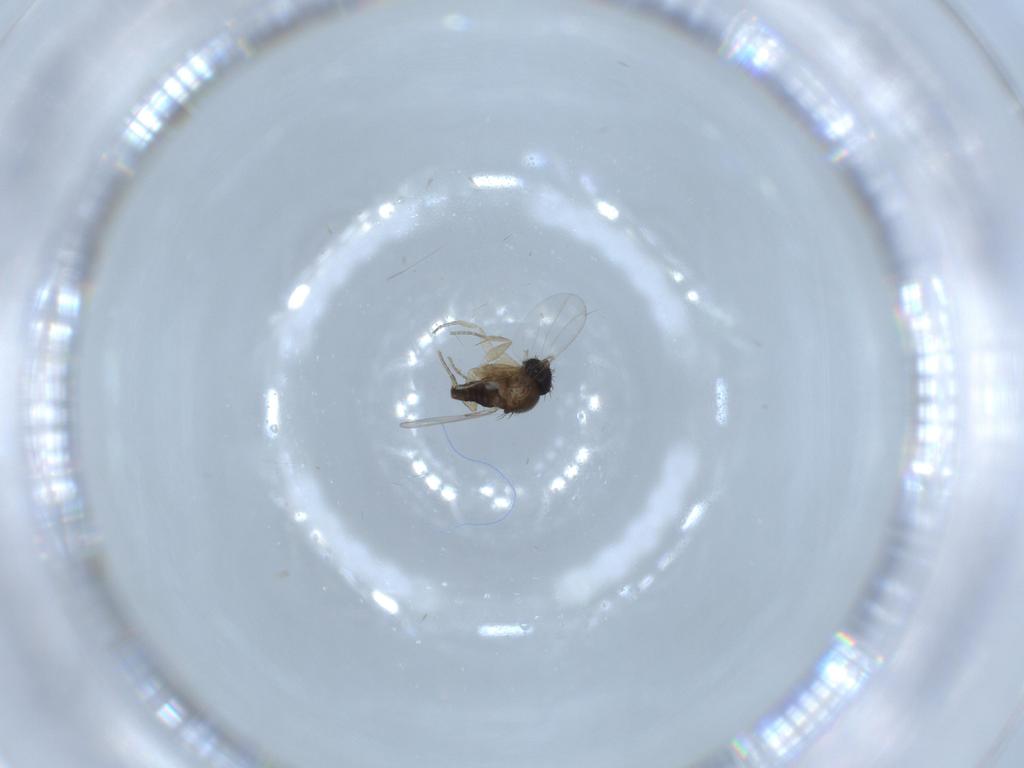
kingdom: Animalia
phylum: Arthropoda
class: Insecta
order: Diptera
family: Phoridae
